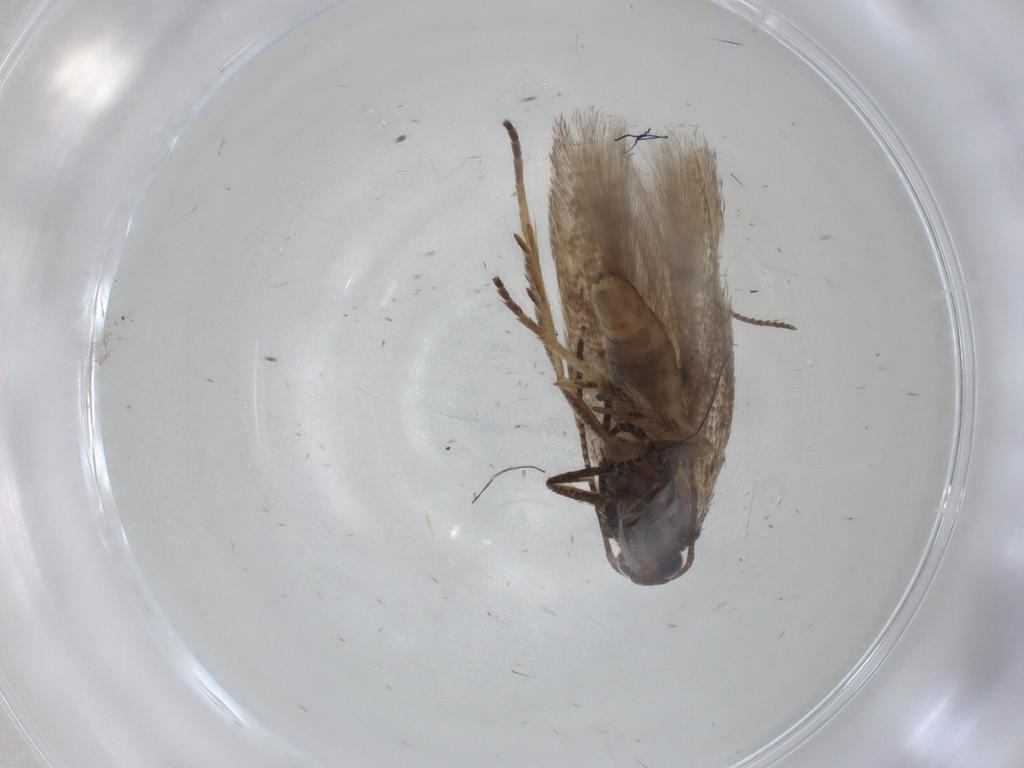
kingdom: Animalia
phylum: Arthropoda
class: Insecta
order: Lepidoptera
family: Gelechiidae
